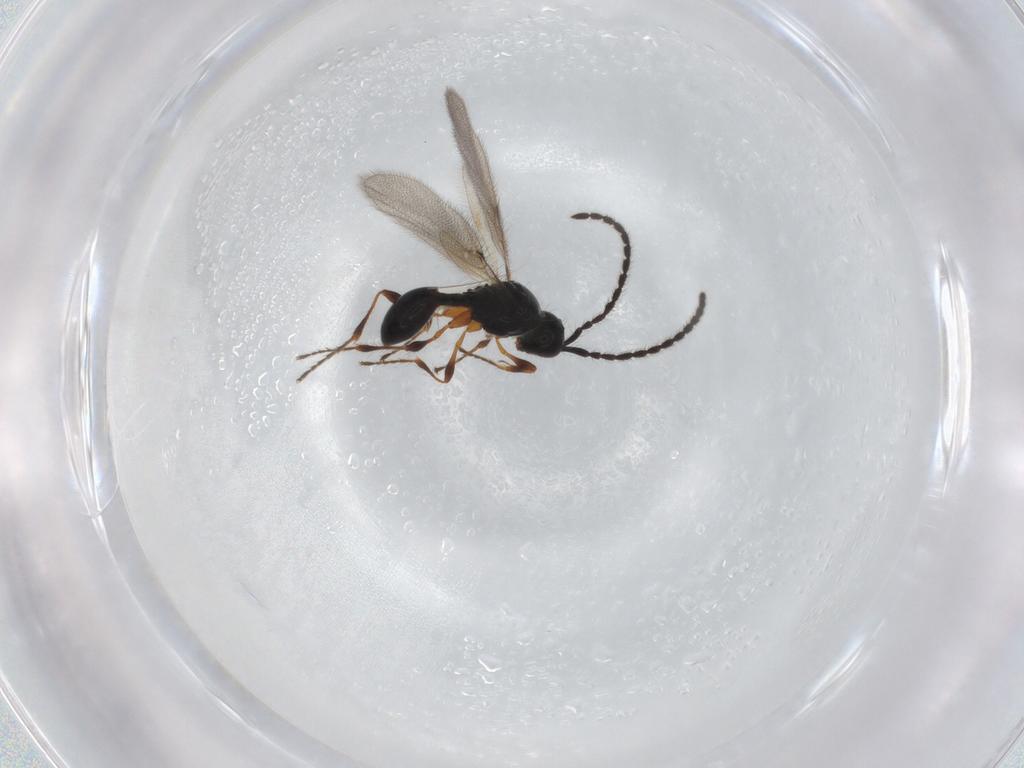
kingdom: Animalia
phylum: Arthropoda
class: Insecta
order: Hymenoptera
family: Diapriidae
